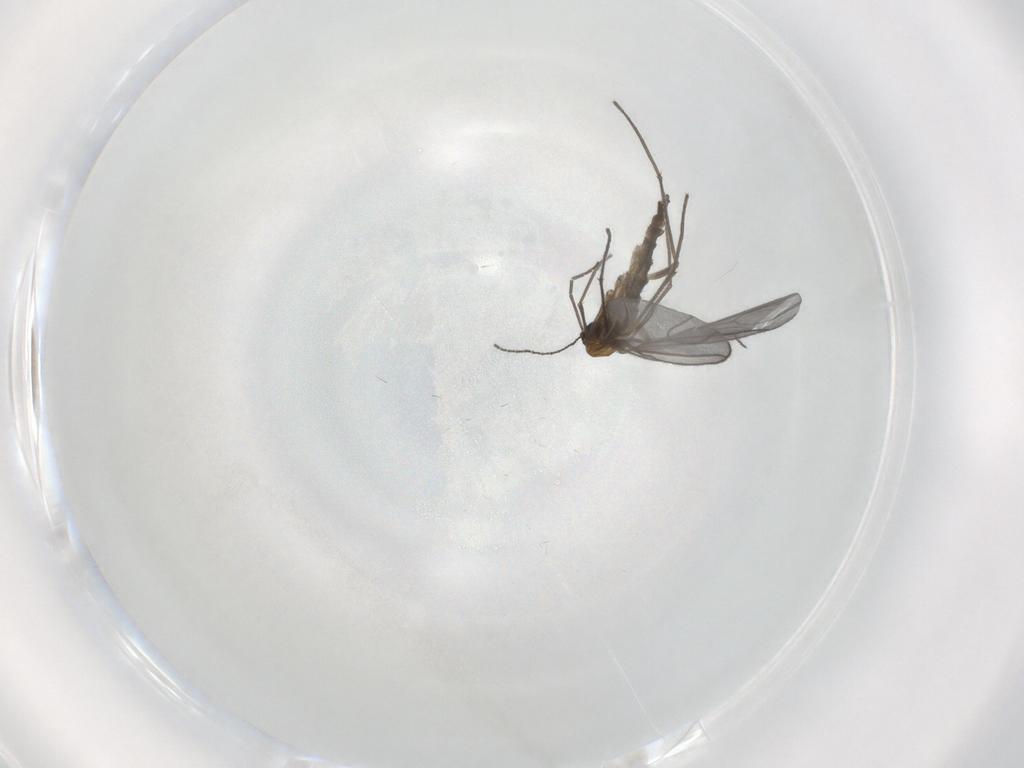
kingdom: Animalia
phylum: Arthropoda
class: Insecta
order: Diptera
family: Sciaridae
